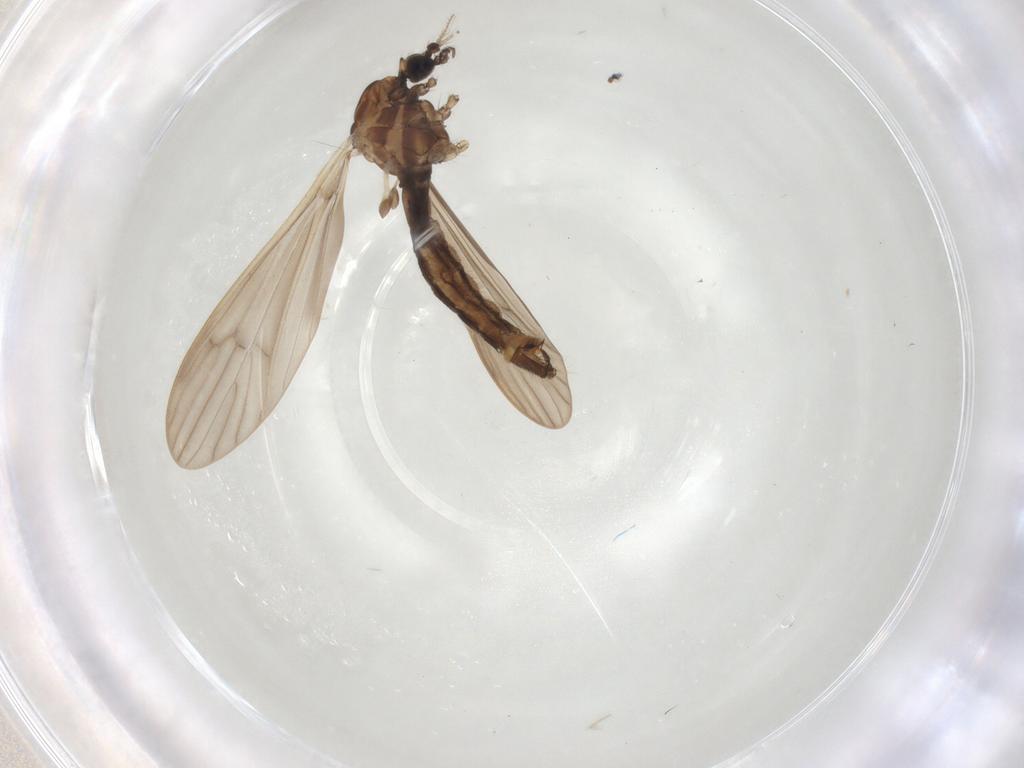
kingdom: Animalia
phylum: Arthropoda
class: Insecta
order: Diptera
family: Limoniidae
